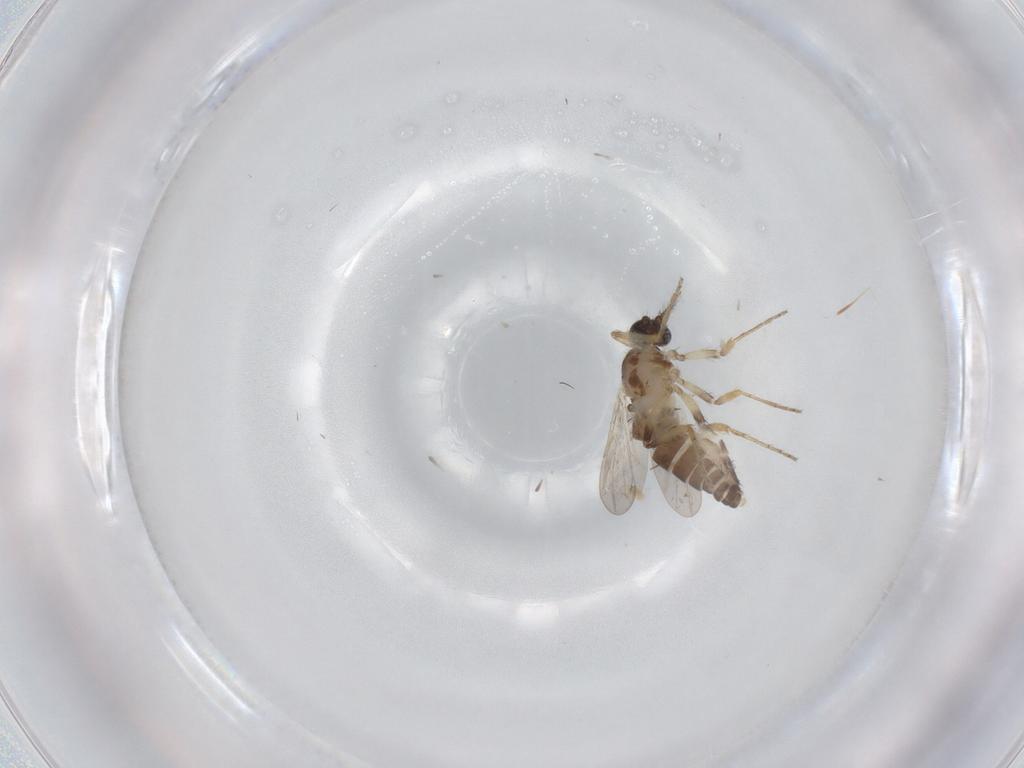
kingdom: Animalia
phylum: Arthropoda
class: Insecta
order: Diptera
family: Ceratopogonidae
